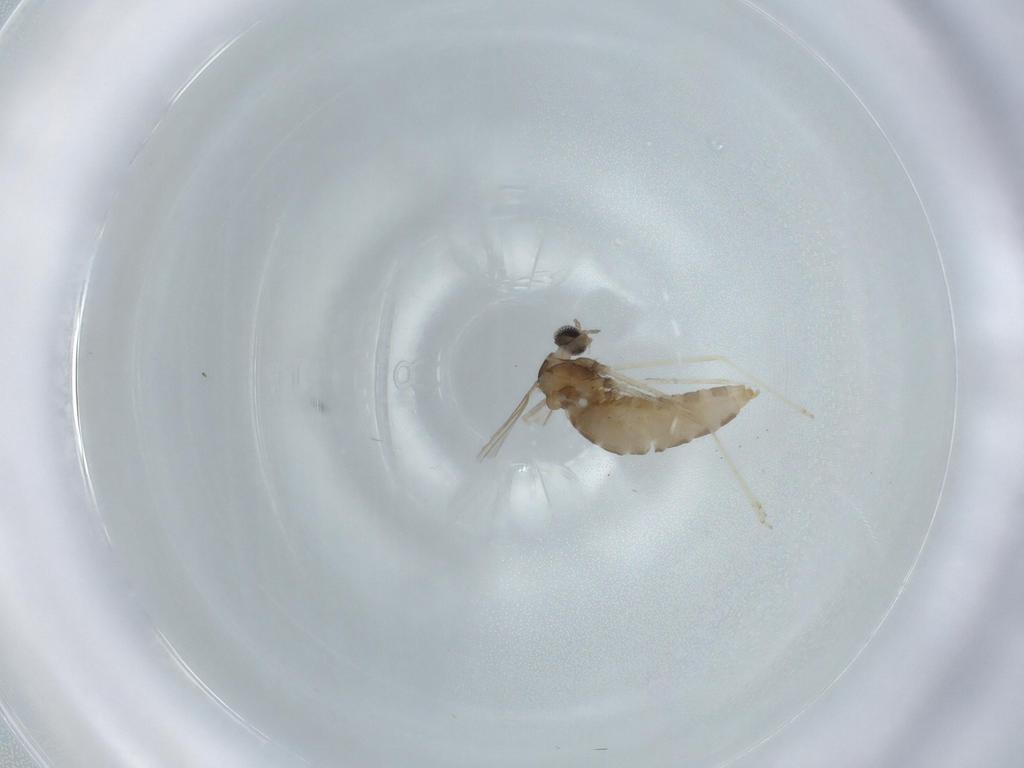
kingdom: Animalia
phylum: Arthropoda
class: Insecta
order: Diptera
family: Cecidomyiidae
